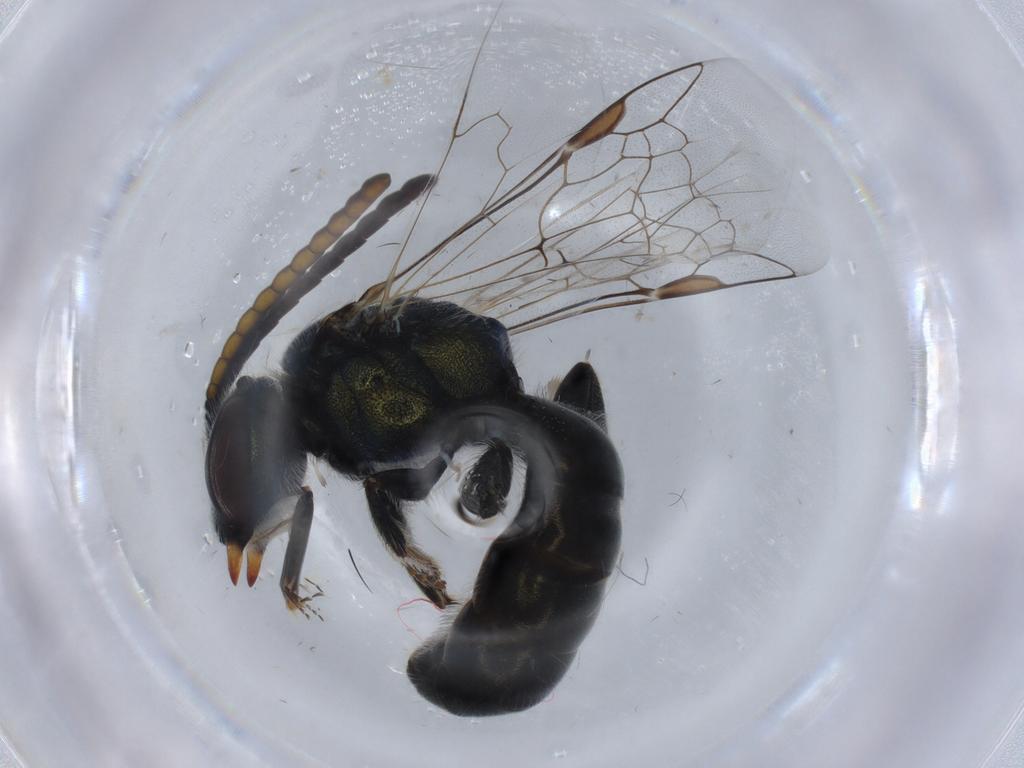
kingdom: Animalia
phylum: Arthropoda
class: Insecta
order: Hymenoptera
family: Halictidae
